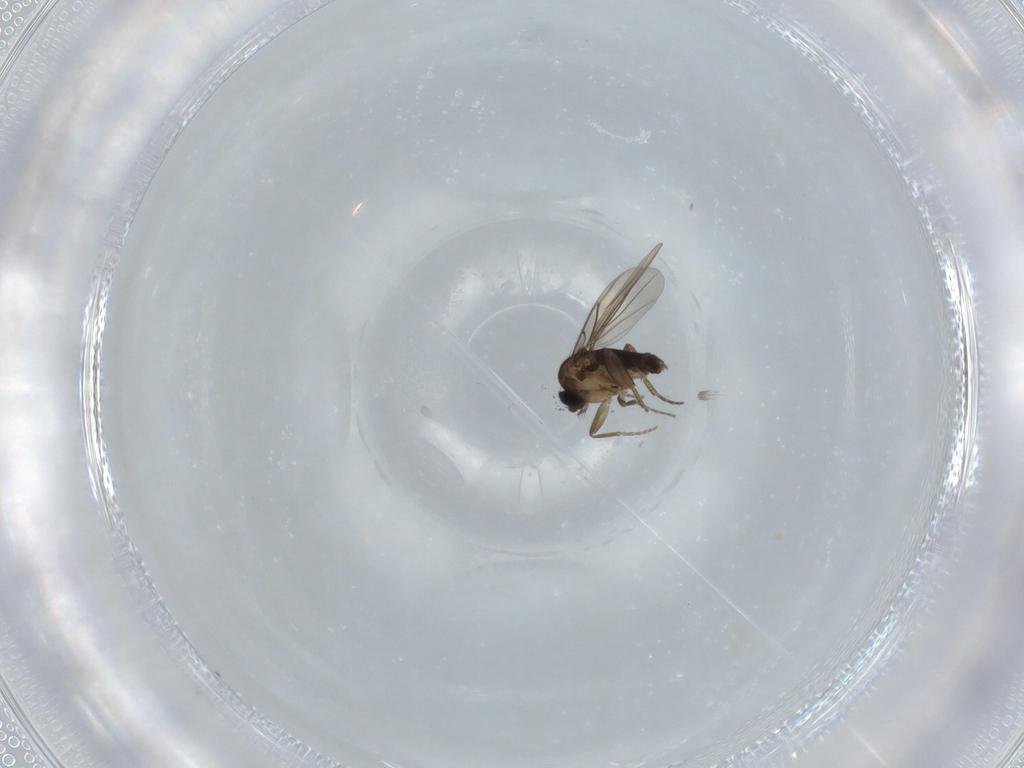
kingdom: Animalia
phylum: Arthropoda
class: Insecta
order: Diptera
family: Phoridae
